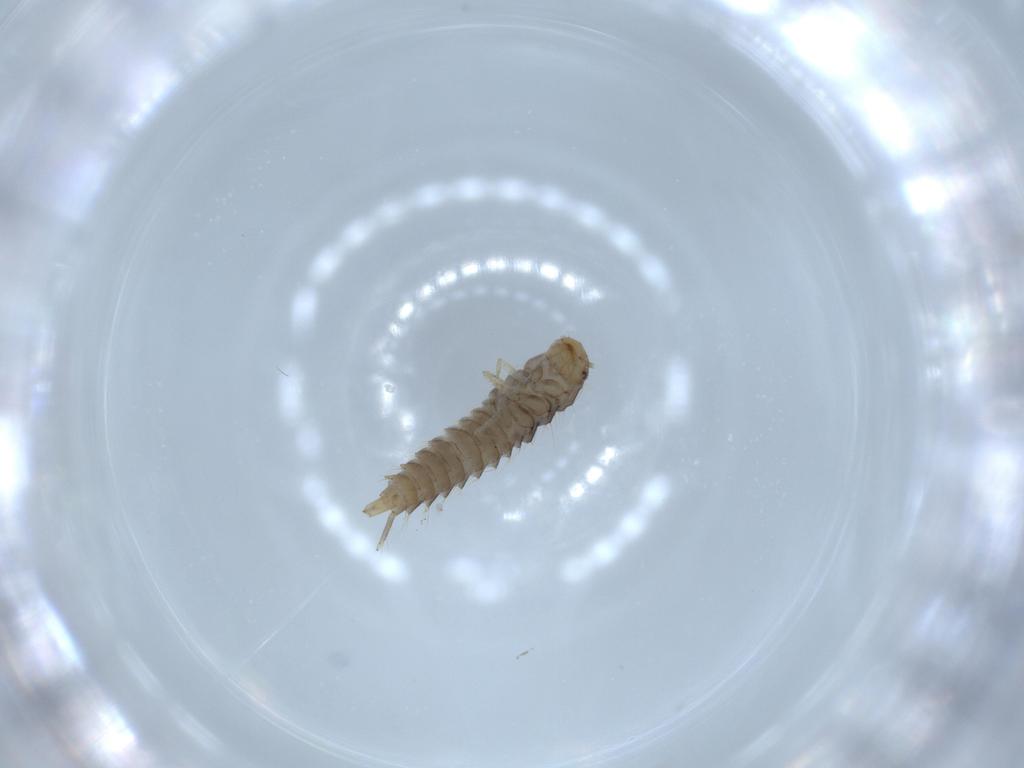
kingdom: Animalia
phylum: Arthropoda
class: Insecta
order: Coleoptera
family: Staphylinidae
